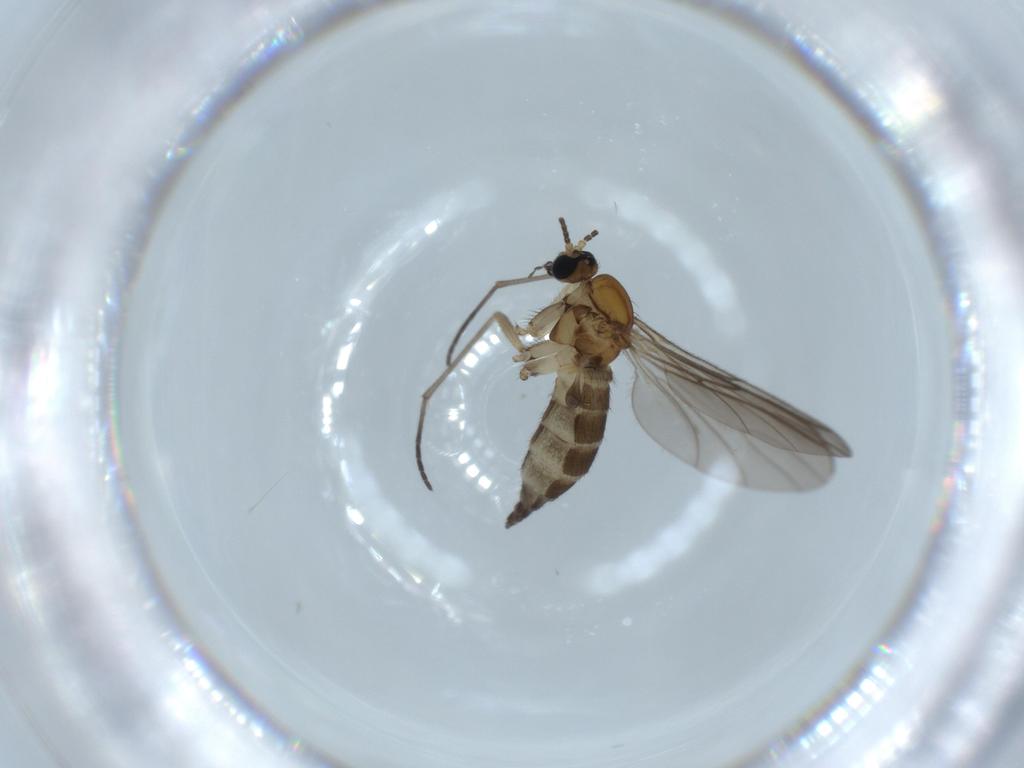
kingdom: Animalia
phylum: Arthropoda
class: Insecta
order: Diptera
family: Sciaridae
